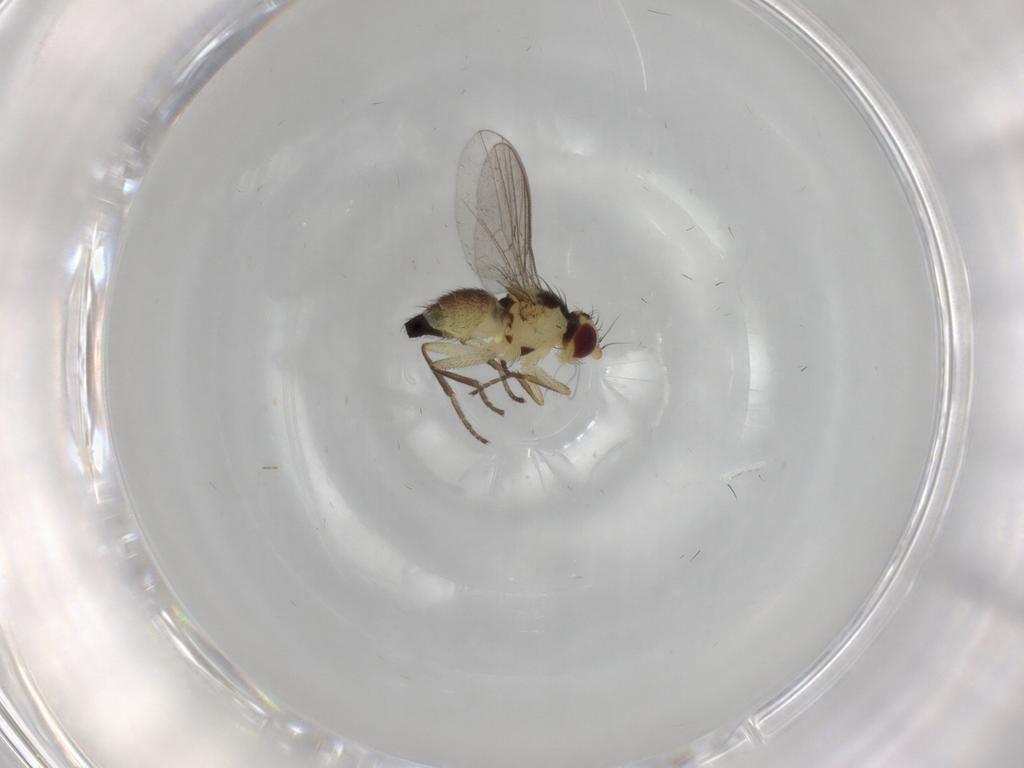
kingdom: Animalia
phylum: Arthropoda
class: Insecta
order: Diptera
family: Agromyzidae
